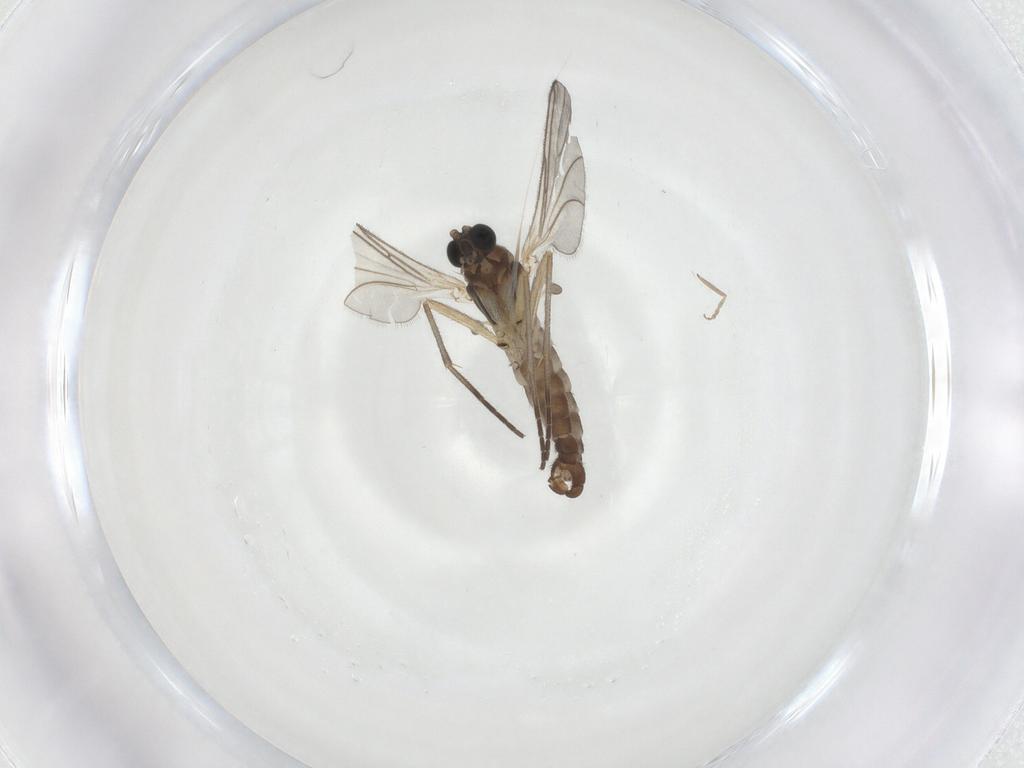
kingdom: Animalia
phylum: Arthropoda
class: Insecta
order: Diptera
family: Sciaridae
